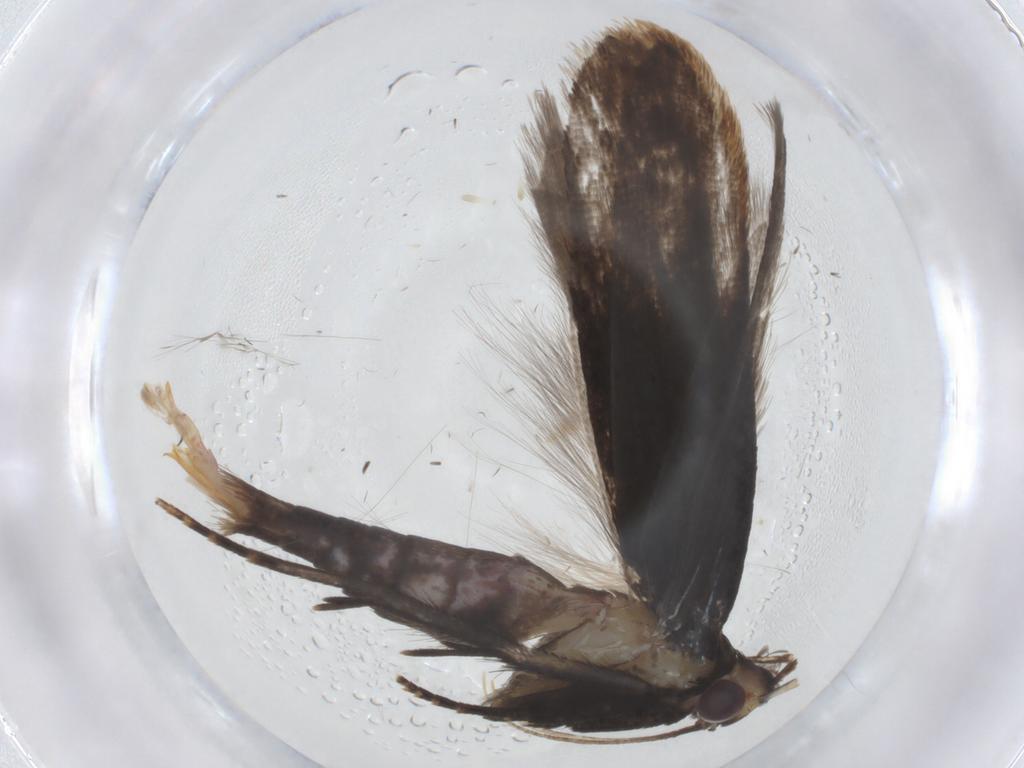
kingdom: Animalia
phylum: Arthropoda
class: Insecta
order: Lepidoptera
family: Gelechiidae
